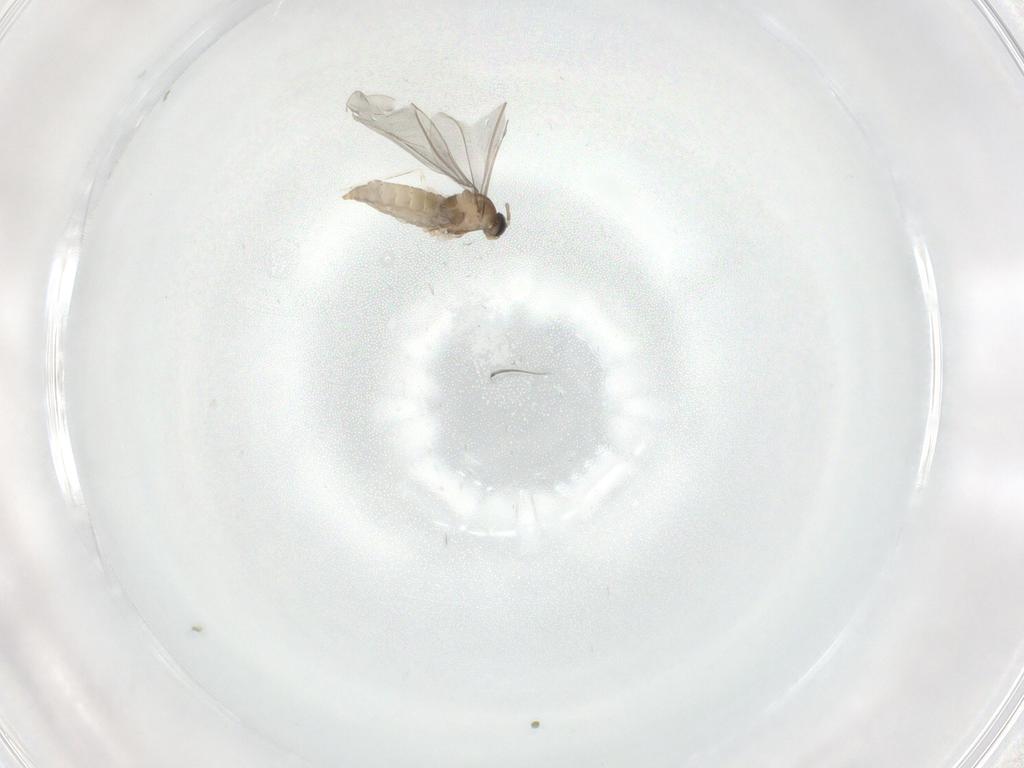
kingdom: Animalia
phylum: Arthropoda
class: Insecta
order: Diptera
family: Cecidomyiidae
